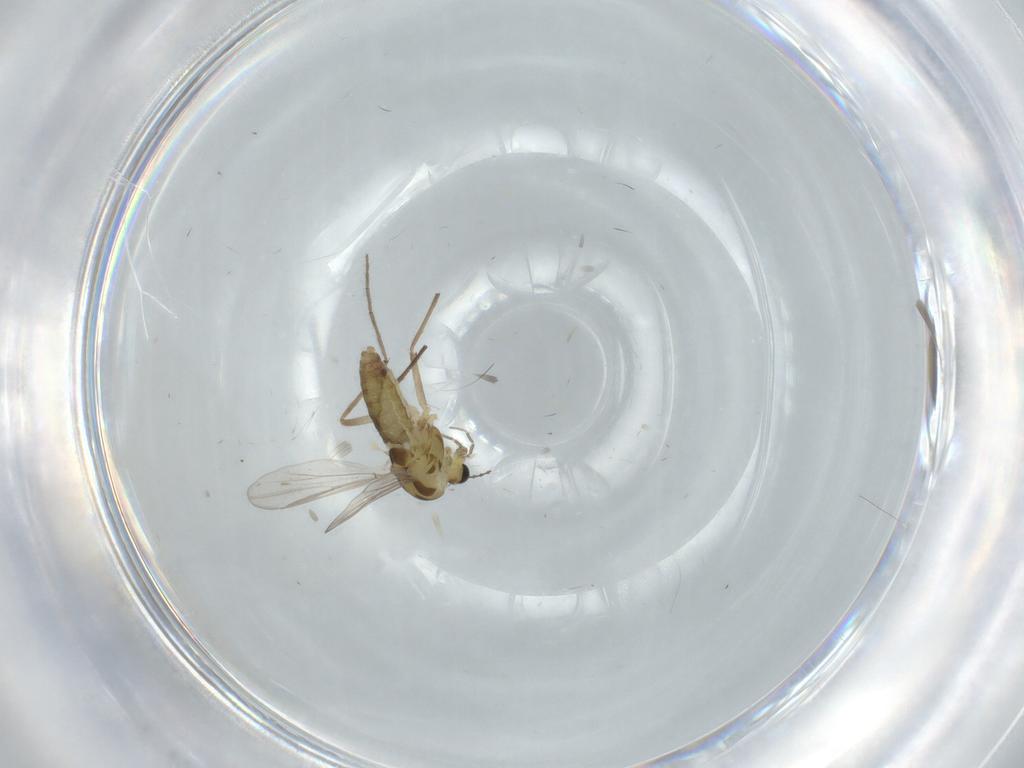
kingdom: Animalia
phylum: Arthropoda
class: Insecta
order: Diptera
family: Chironomidae
